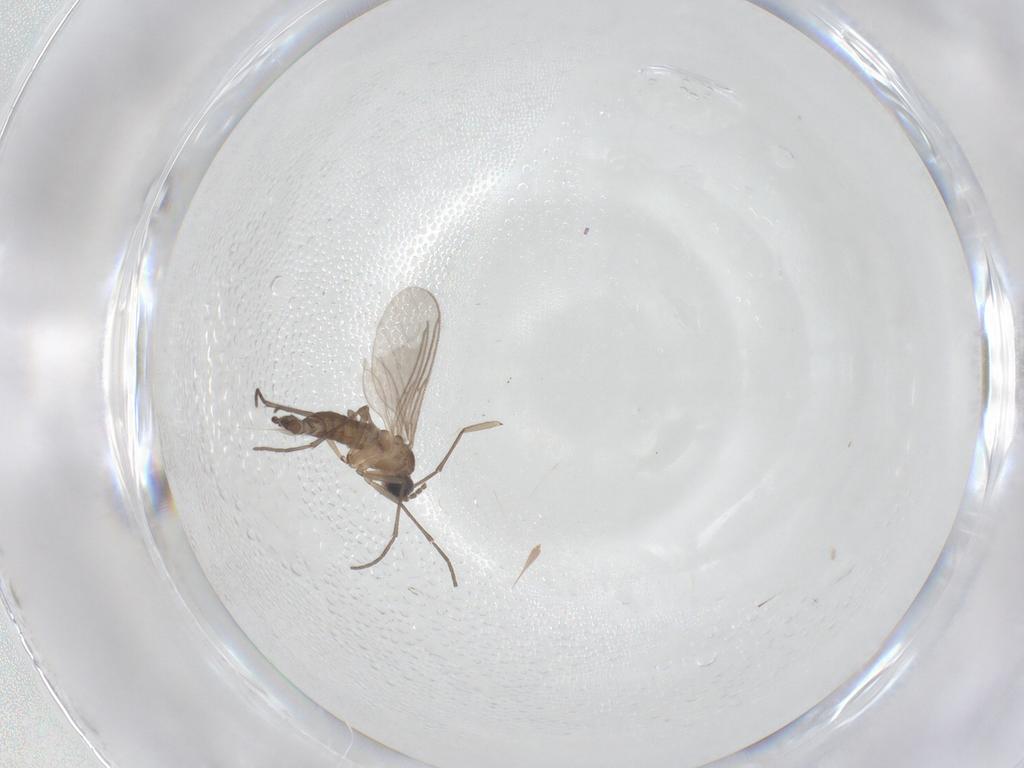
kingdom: Animalia
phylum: Arthropoda
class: Insecta
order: Diptera
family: Sciaridae
